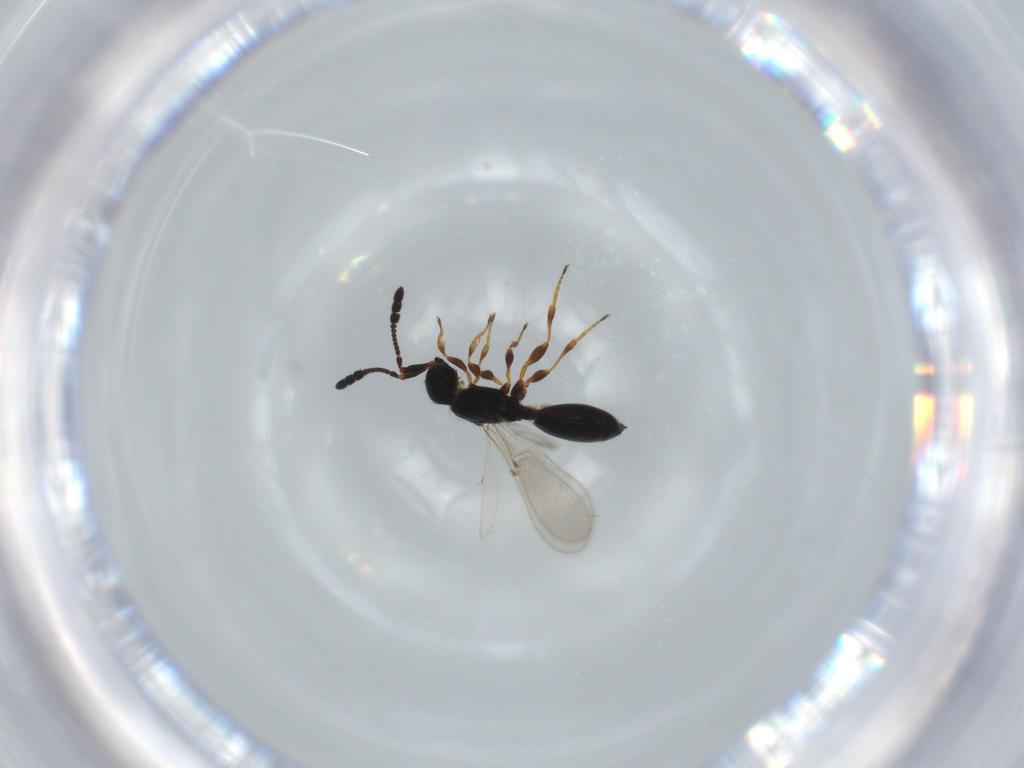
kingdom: Animalia
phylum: Arthropoda
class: Insecta
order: Hymenoptera
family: Diapriidae
